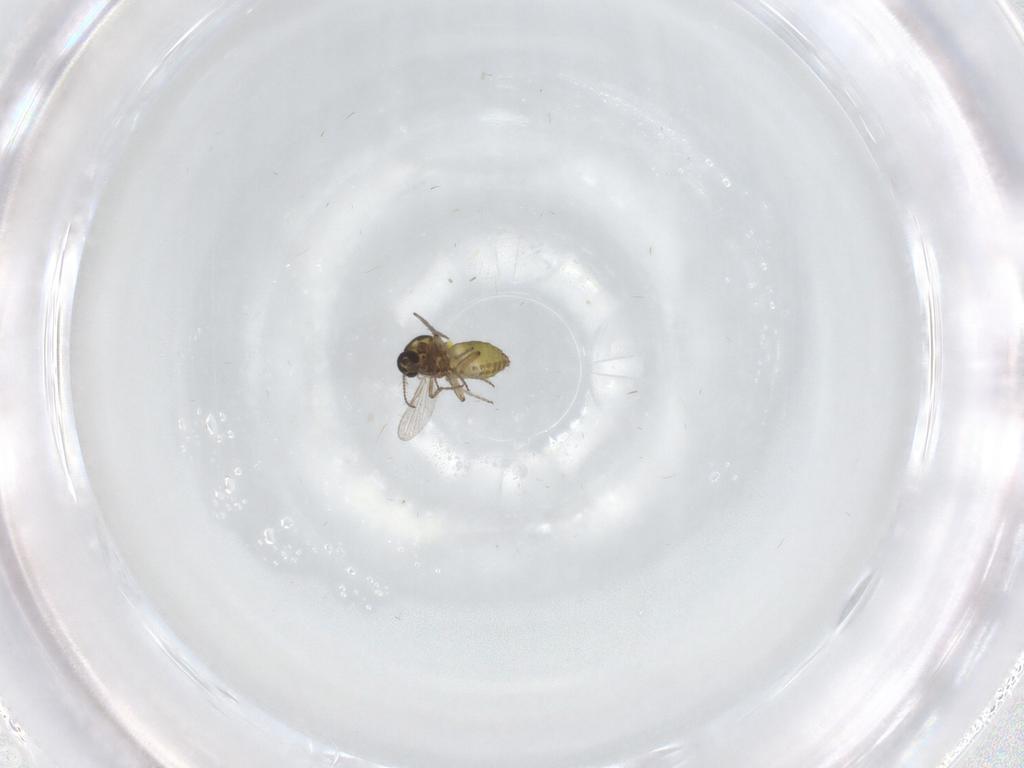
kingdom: Animalia
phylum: Arthropoda
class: Insecta
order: Diptera
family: Ceratopogonidae
